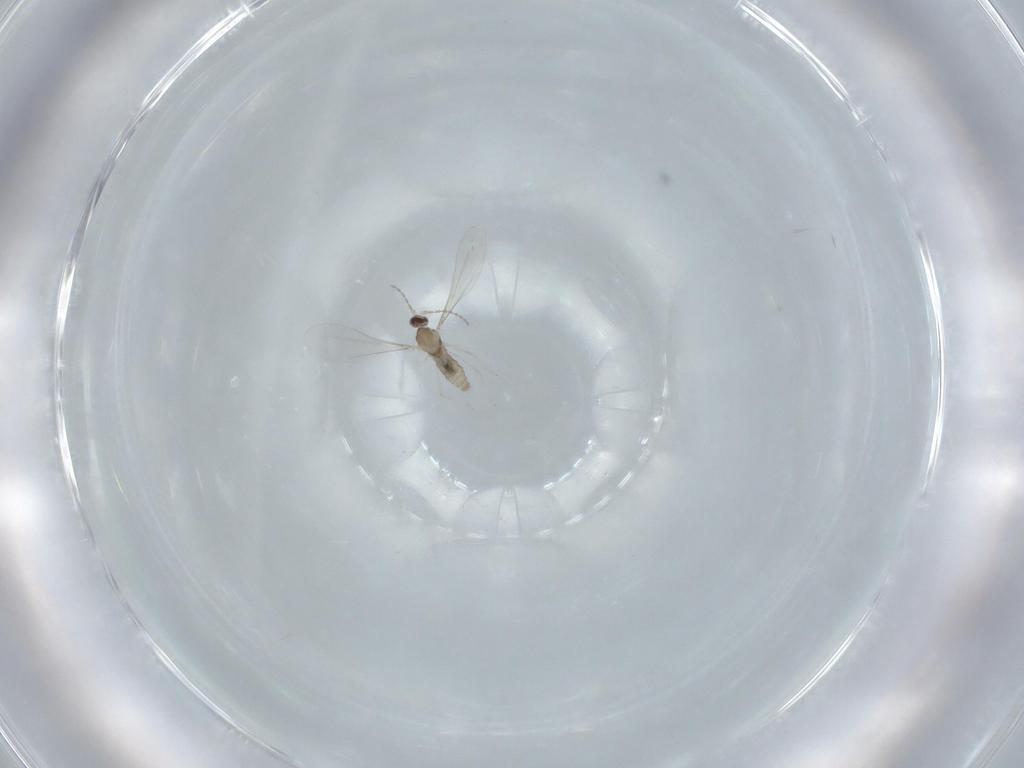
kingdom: Animalia
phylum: Arthropoda
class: Insecta
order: Diptera
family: Cecidomyiidae
